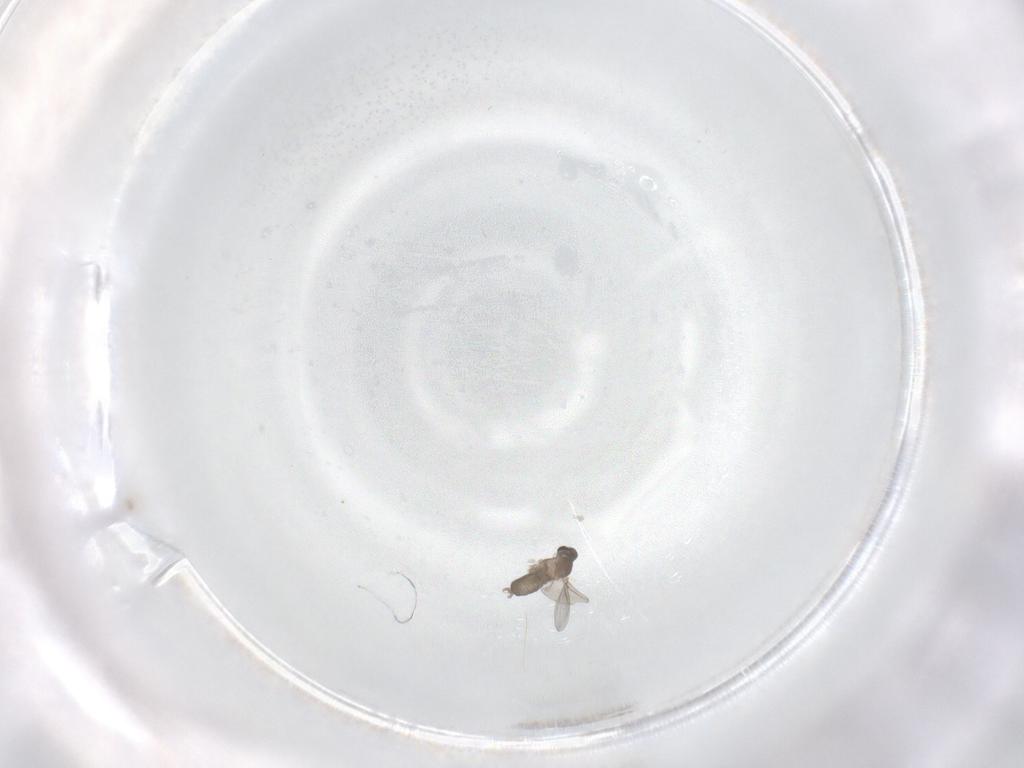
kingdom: Animalia
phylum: Arthropoda
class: Insecta
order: Diptera
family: Cecidomyiidae
